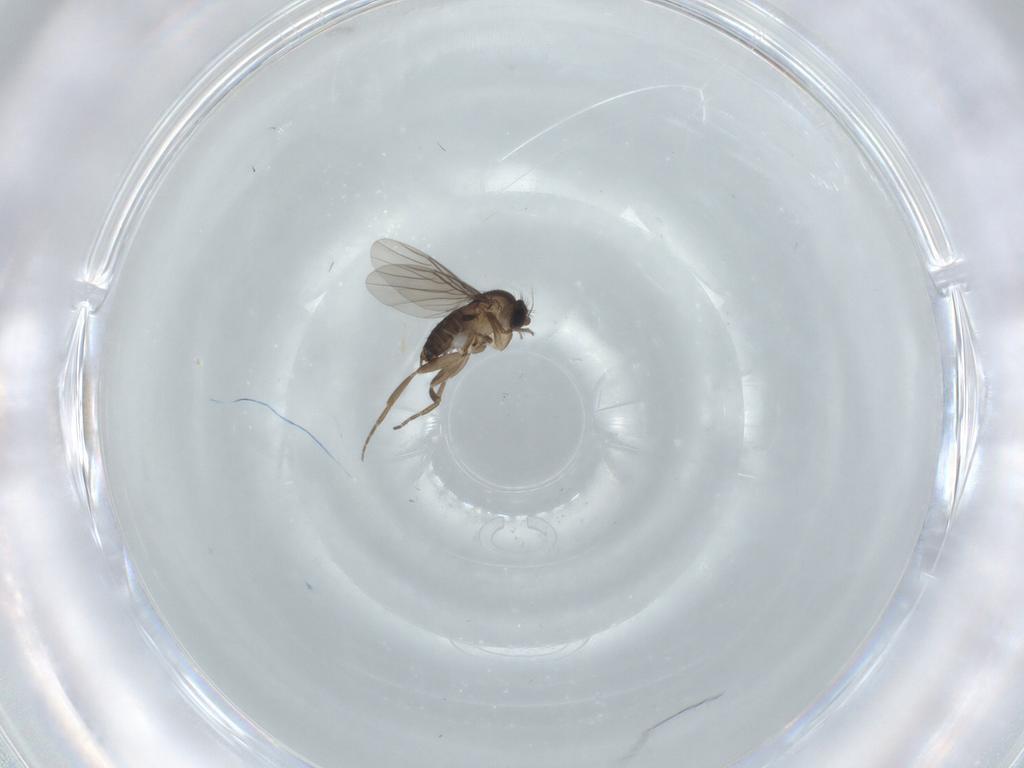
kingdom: Animalia
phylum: Arthropoda
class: Insecta
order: Diptera
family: Phoridae
